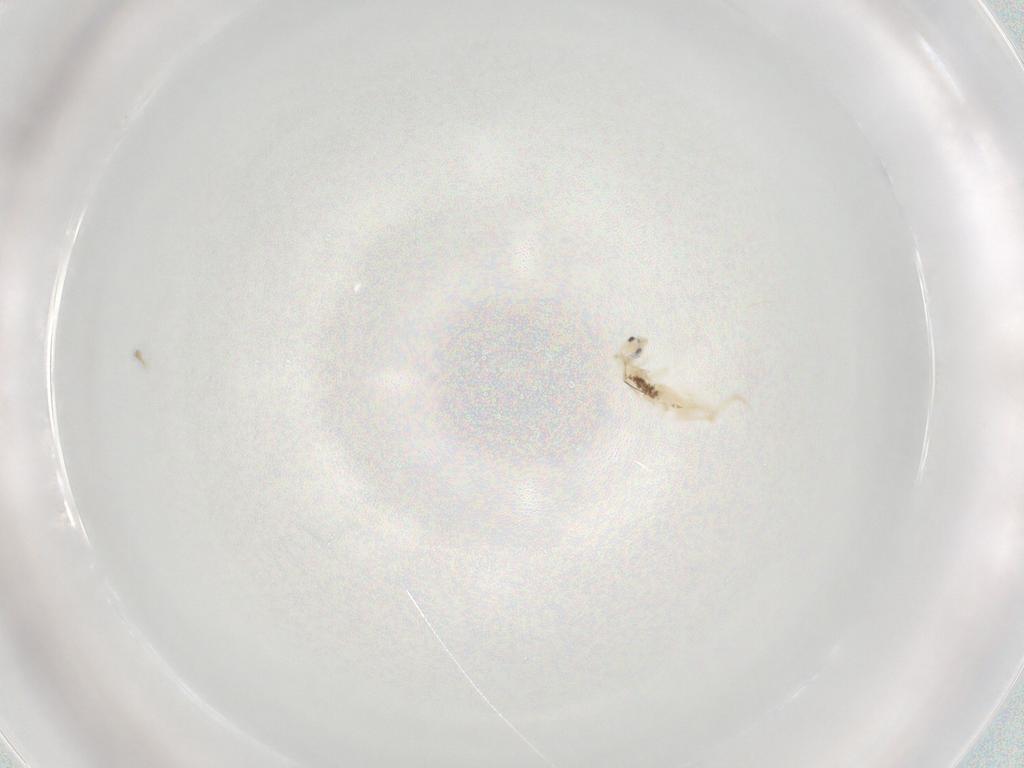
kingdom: Animalia
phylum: Arthropoda
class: Collembola
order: Entomobryomorpha
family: Entomobryidae
